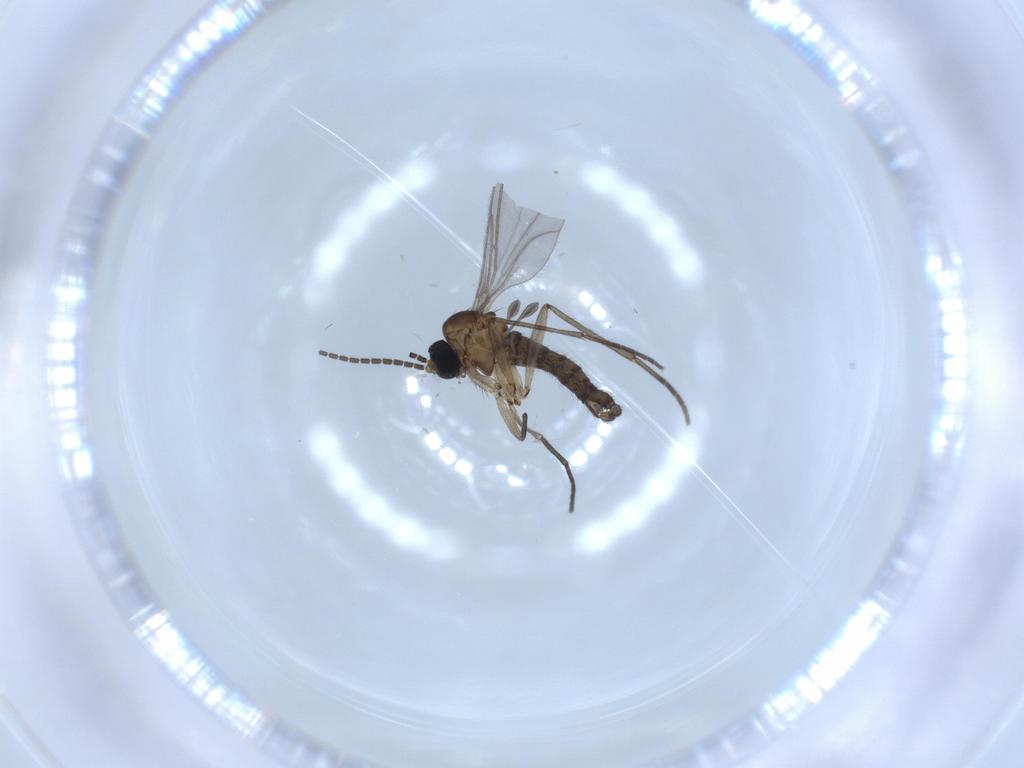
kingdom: Animalia
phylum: Arthropoda
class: Insecta
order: Diptera
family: Sciaridae
